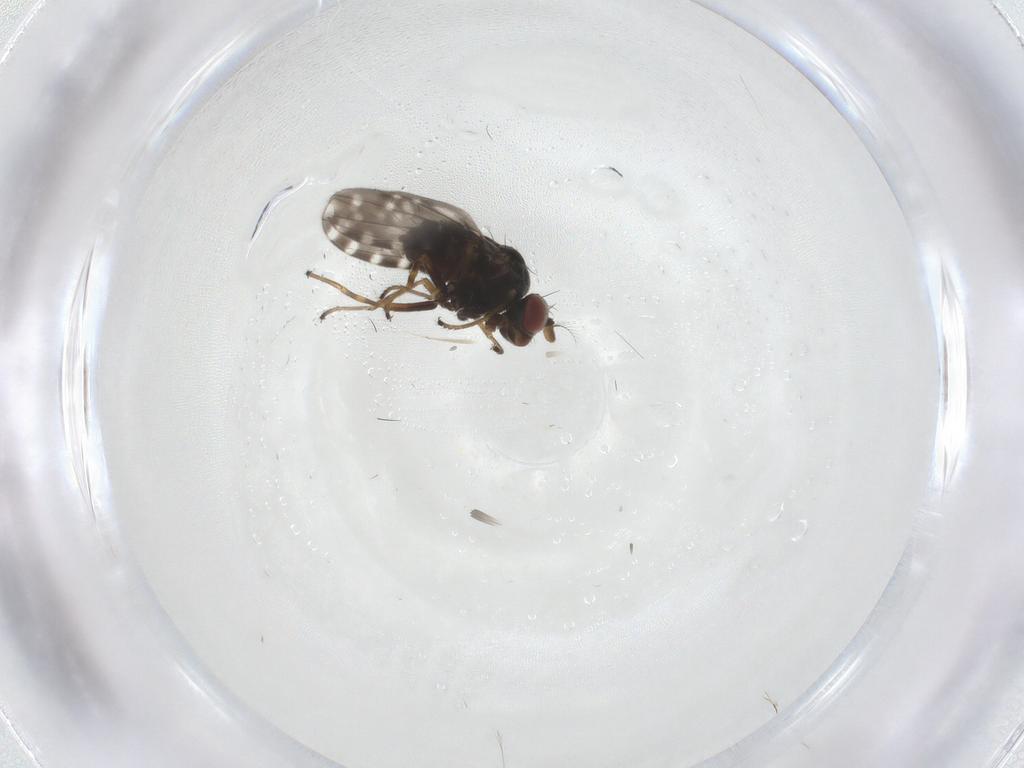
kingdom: Animalia
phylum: Arthropoda
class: Insecta
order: Diptera
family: Ephydridae
